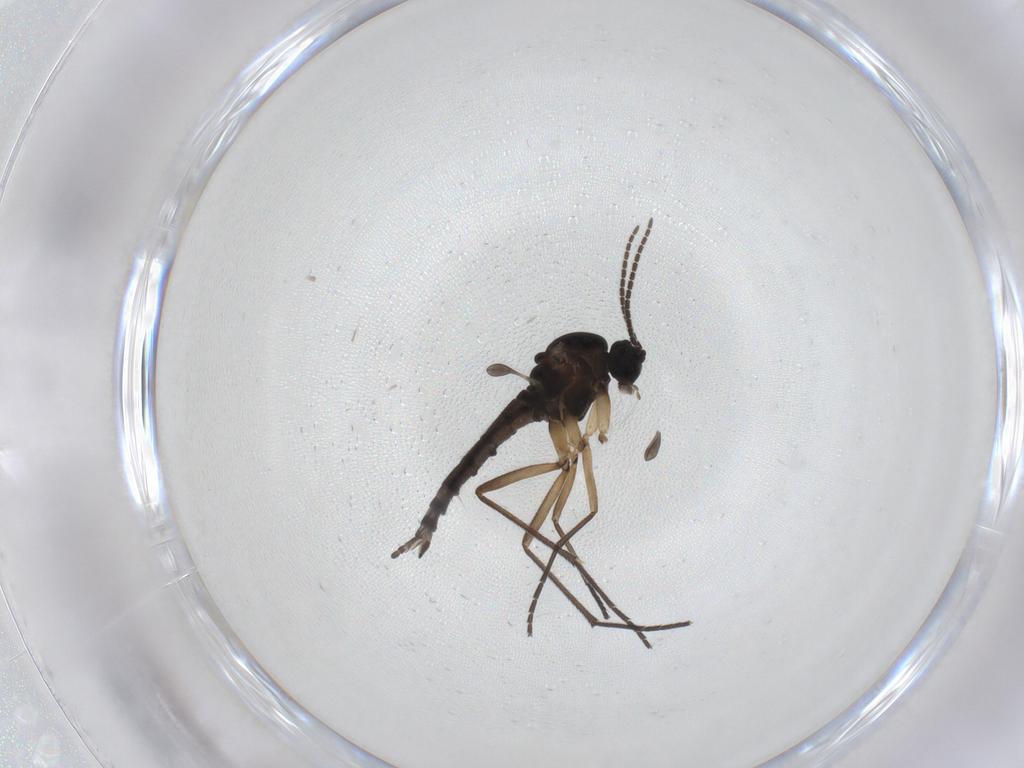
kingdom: Animalia
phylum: Arthropoda
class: Insecta
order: Diptera
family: Sciaridae
